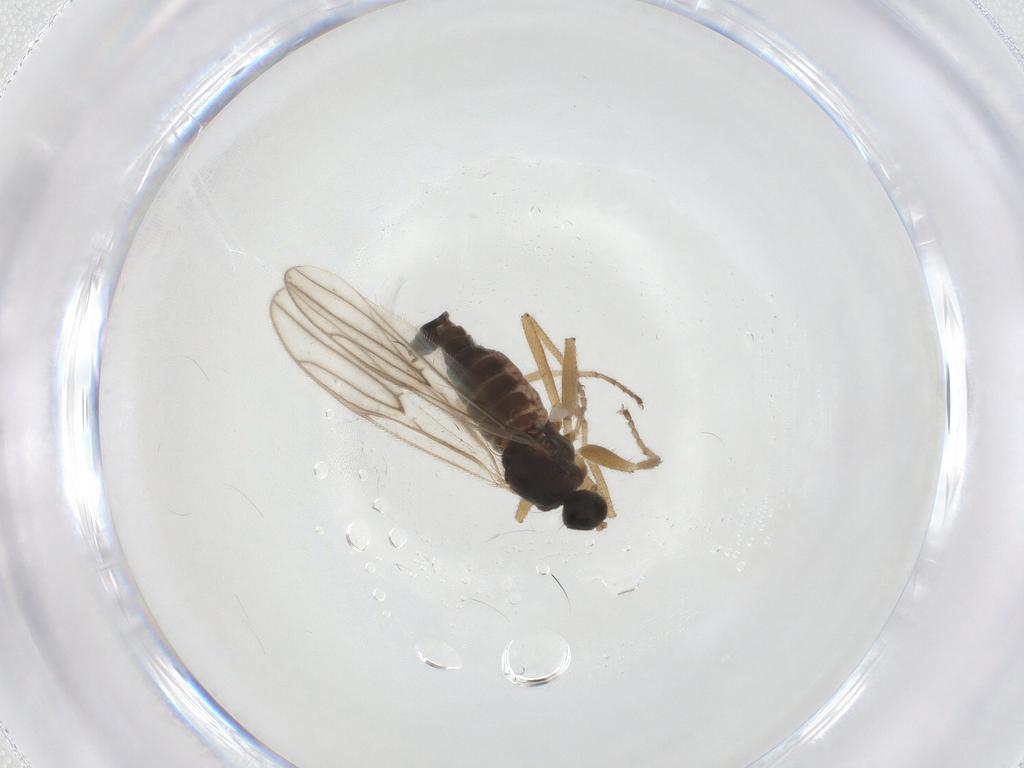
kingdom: Animalia
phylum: Arthropoda
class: Insecta
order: Diptera
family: Hybotidae
